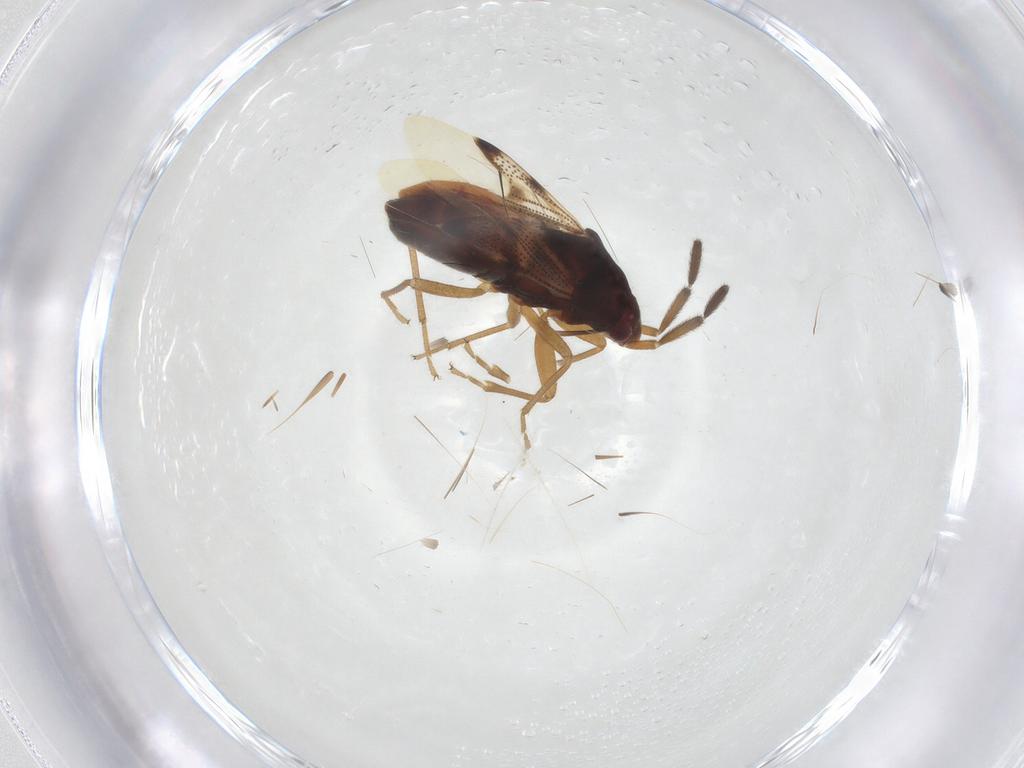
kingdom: Animalia
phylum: Arthropoda
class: Insecta
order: Hemiptera
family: Rhyparochromidae
